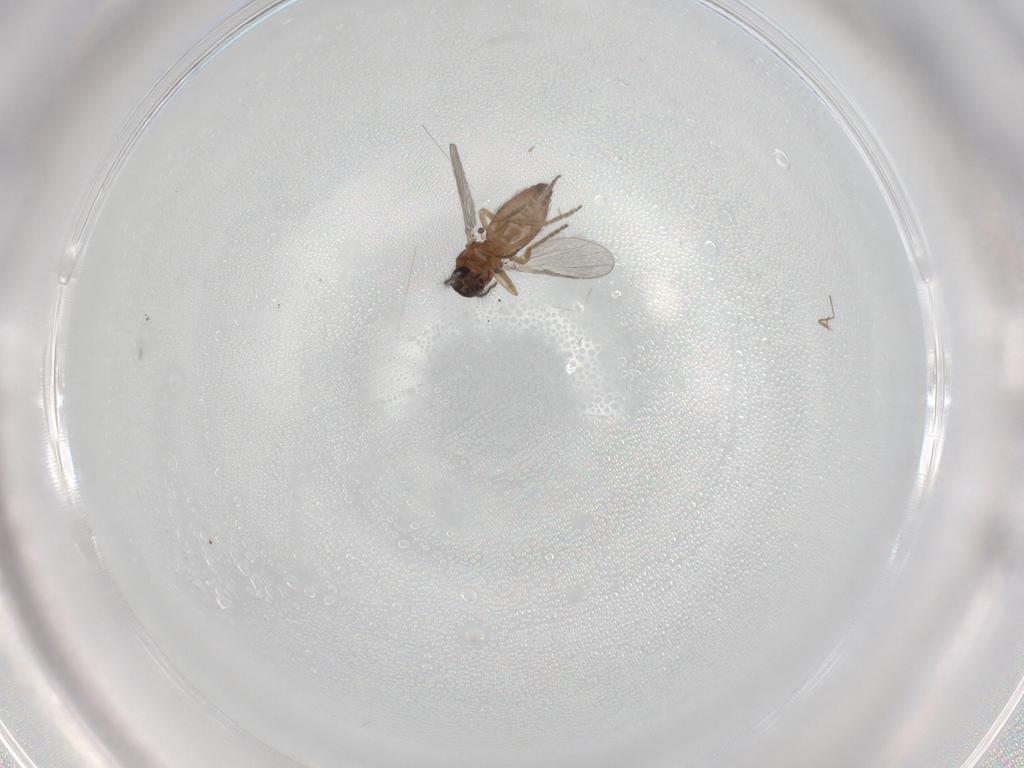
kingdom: Animalia
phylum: Arthropoda
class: Insecta
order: Diptera
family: Ceratopogonidae
